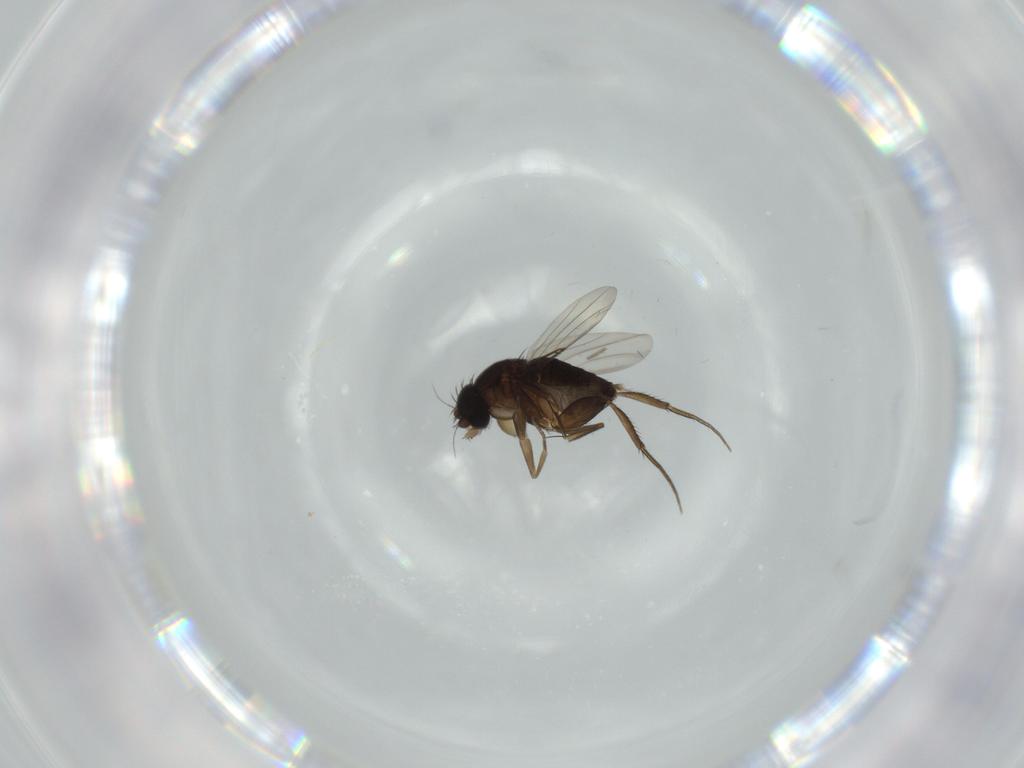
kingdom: Animalia
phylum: Arthropoda
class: Insecta
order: Diptera
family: Phoridae
